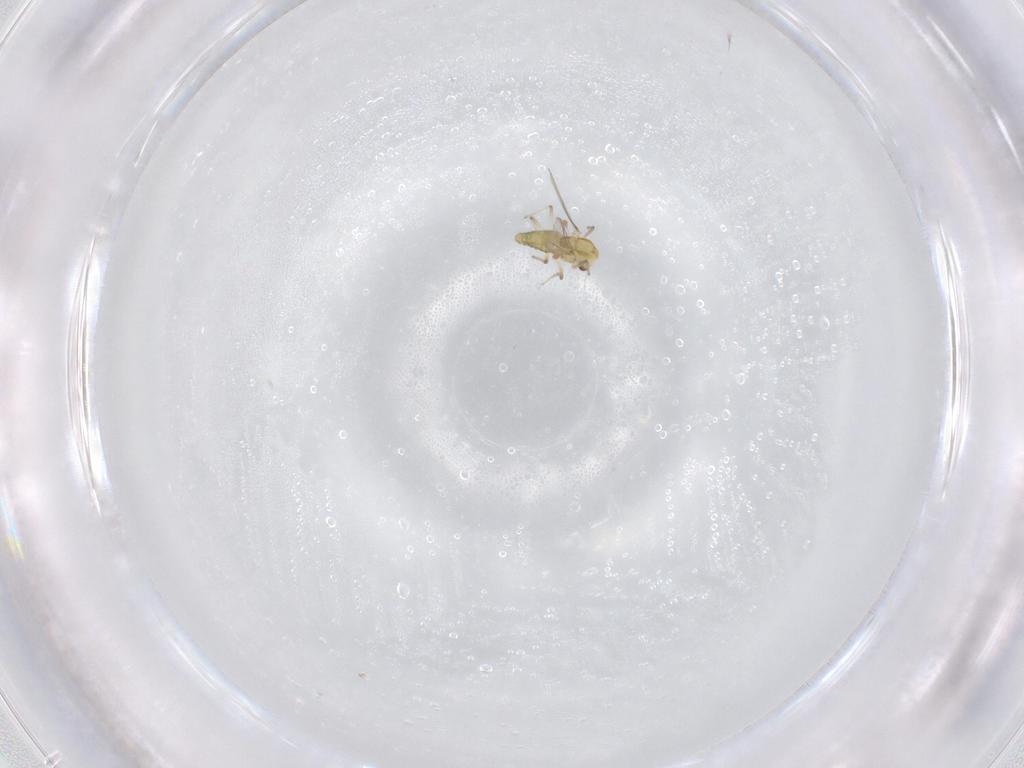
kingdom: Animalia
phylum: Arthropoda
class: Insecta
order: Diptera
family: Chironomidae
